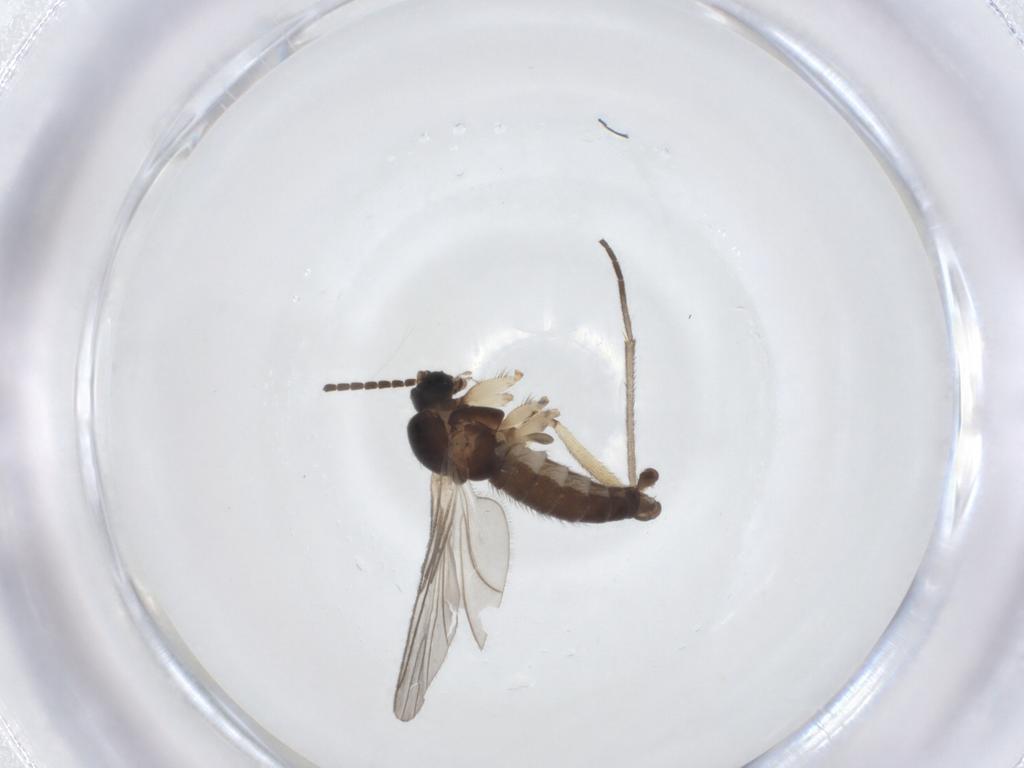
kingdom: Animalia
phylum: Arthropoda
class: Insecta
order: Diptera
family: Sciaridae
